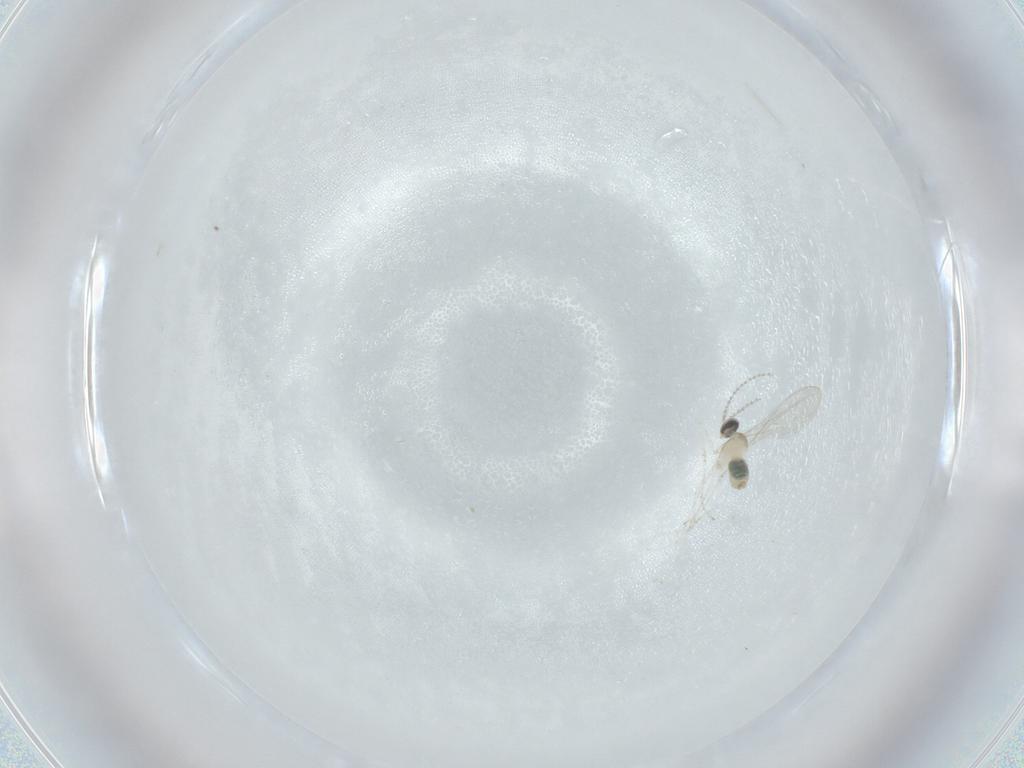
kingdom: Animalia
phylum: Arthropoda
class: Insecta
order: Diptera
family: Cecidomyiidae
